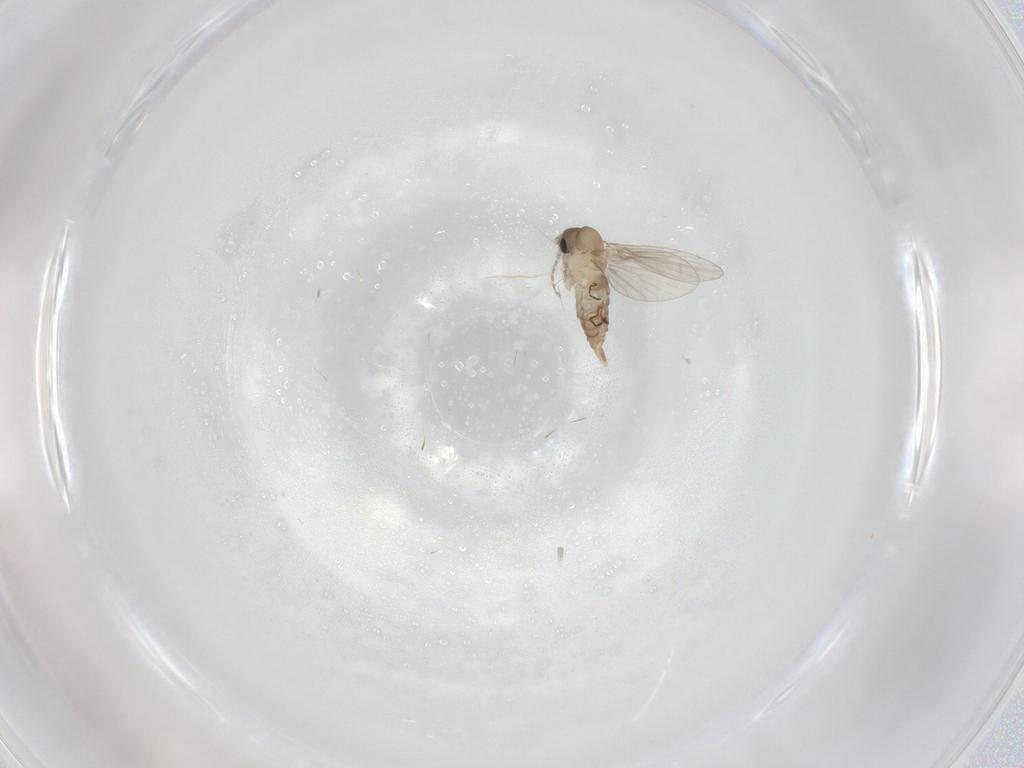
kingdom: Animalia
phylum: Arthropoda
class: Insecta
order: Diptera
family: Psychodidae
